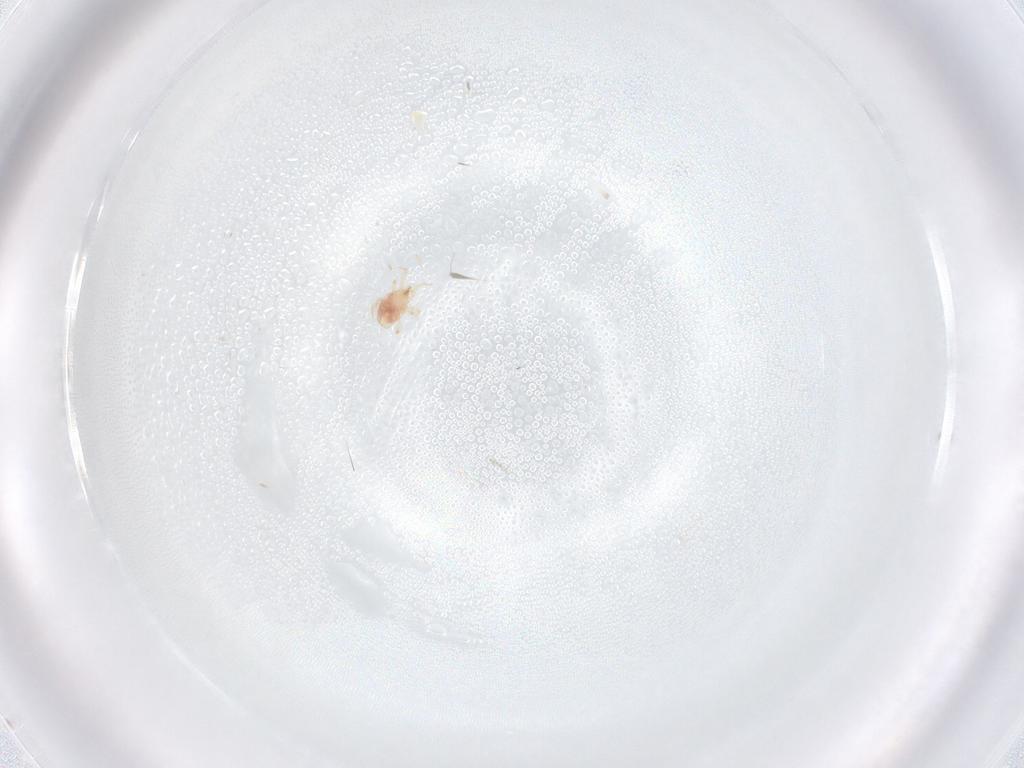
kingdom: Animalia
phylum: Arthropoda
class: Arachnida
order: Mesostigmata
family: Phytoseiidae
